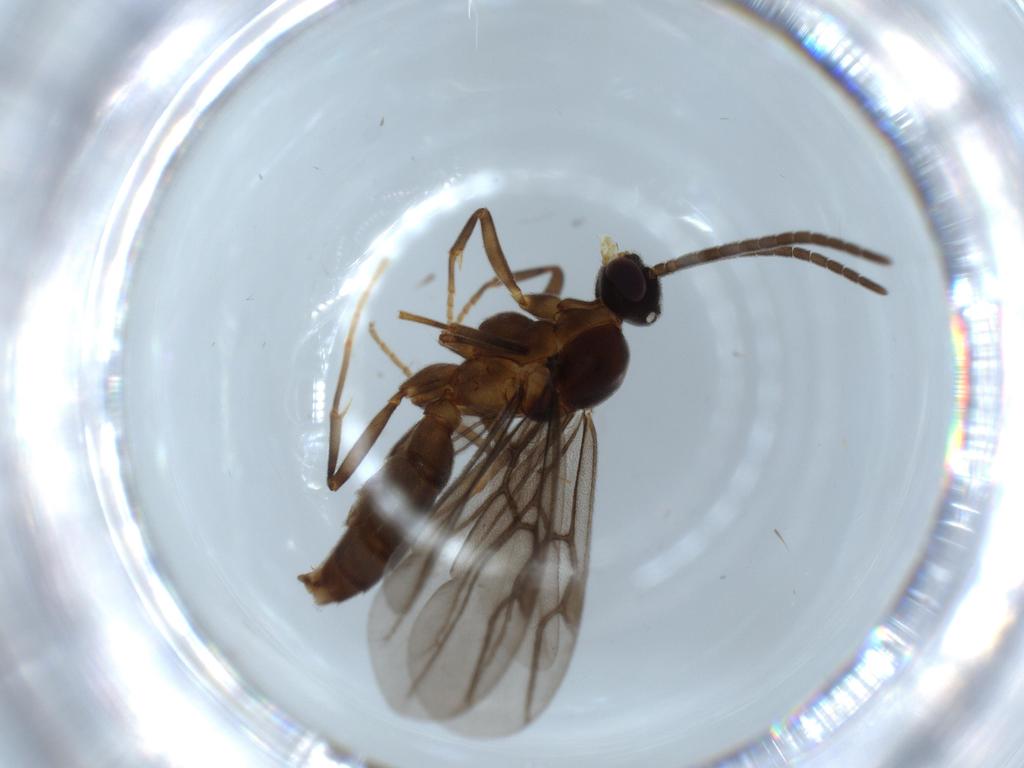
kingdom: Animalia
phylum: Arthropoda
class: Insecta
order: Hymenoptera
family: Formicidae
